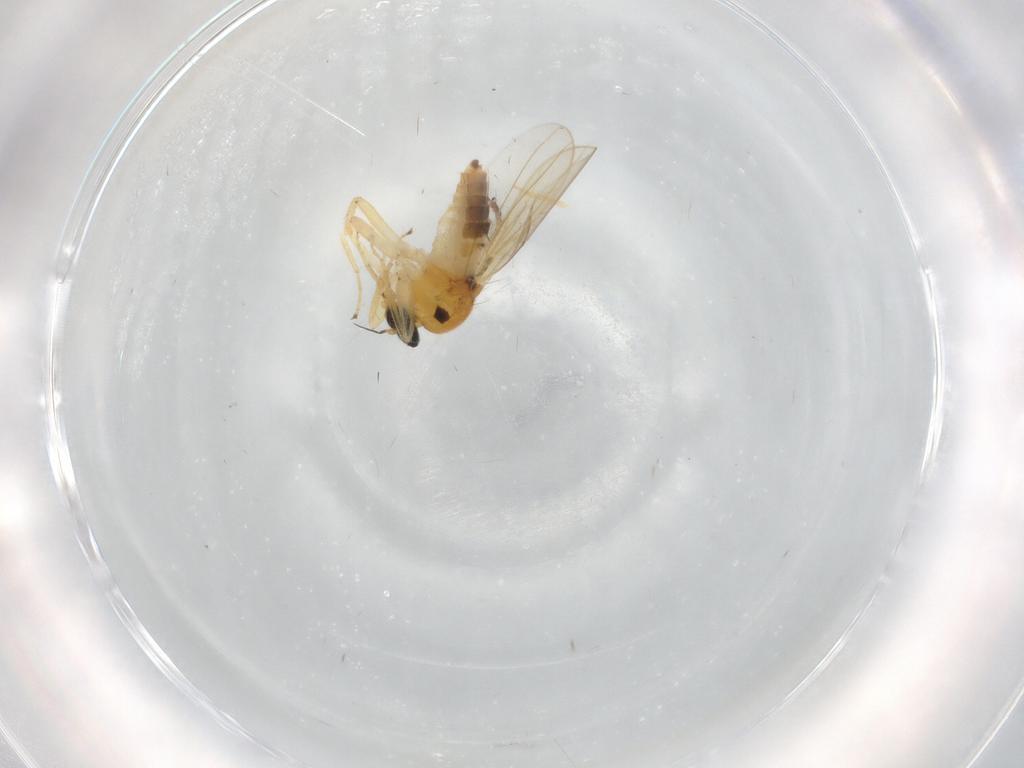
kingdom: Animalia
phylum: Arthropoda
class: Insecta
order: Diptera
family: Hybotidae
